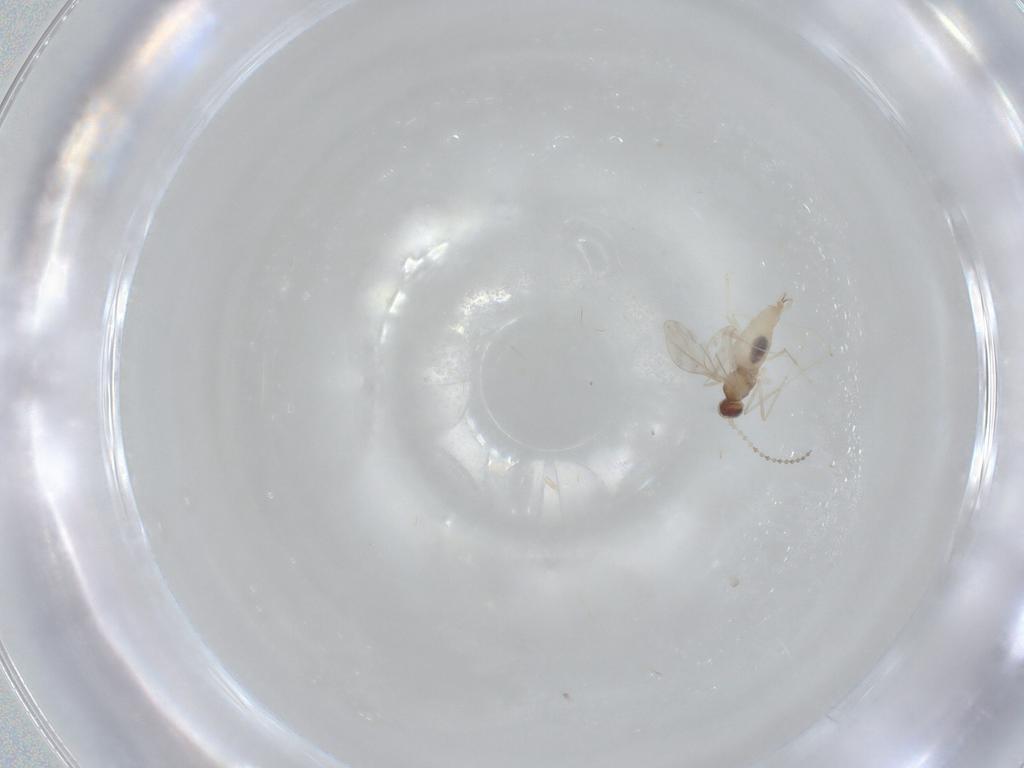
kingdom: Animalia
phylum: Arthropoda
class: Insecta
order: Diptera
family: Cecidomyiidae
